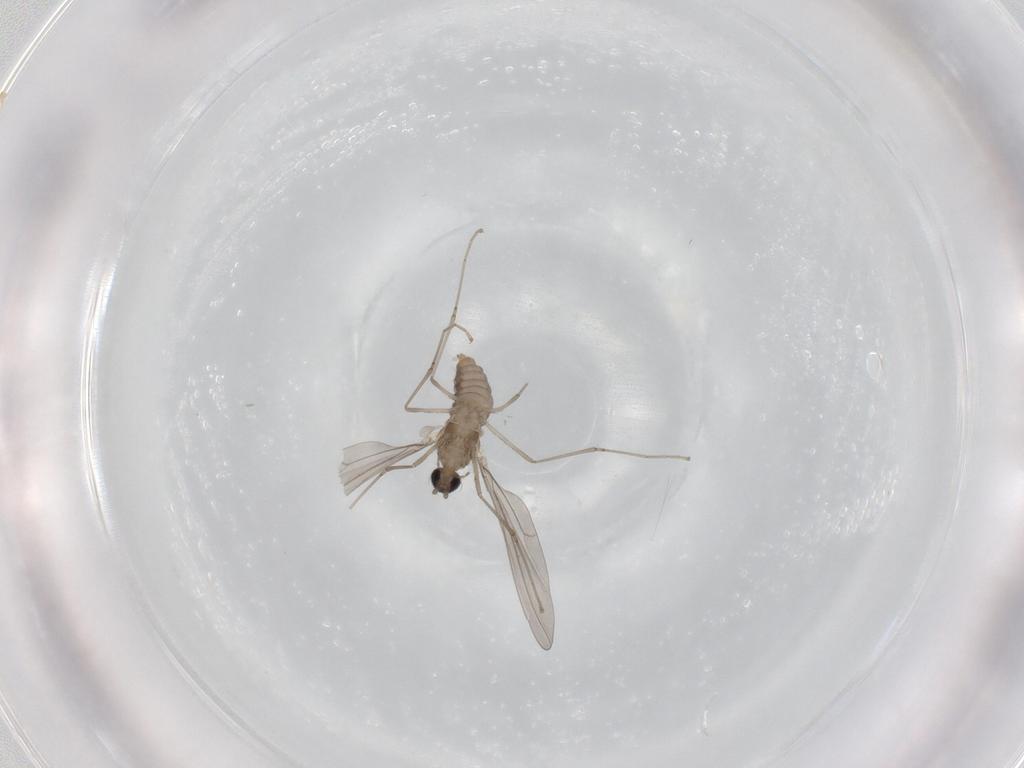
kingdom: Animalia
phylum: Arthropoda
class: Insecta
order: Diptera
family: Cecidomyiidae
